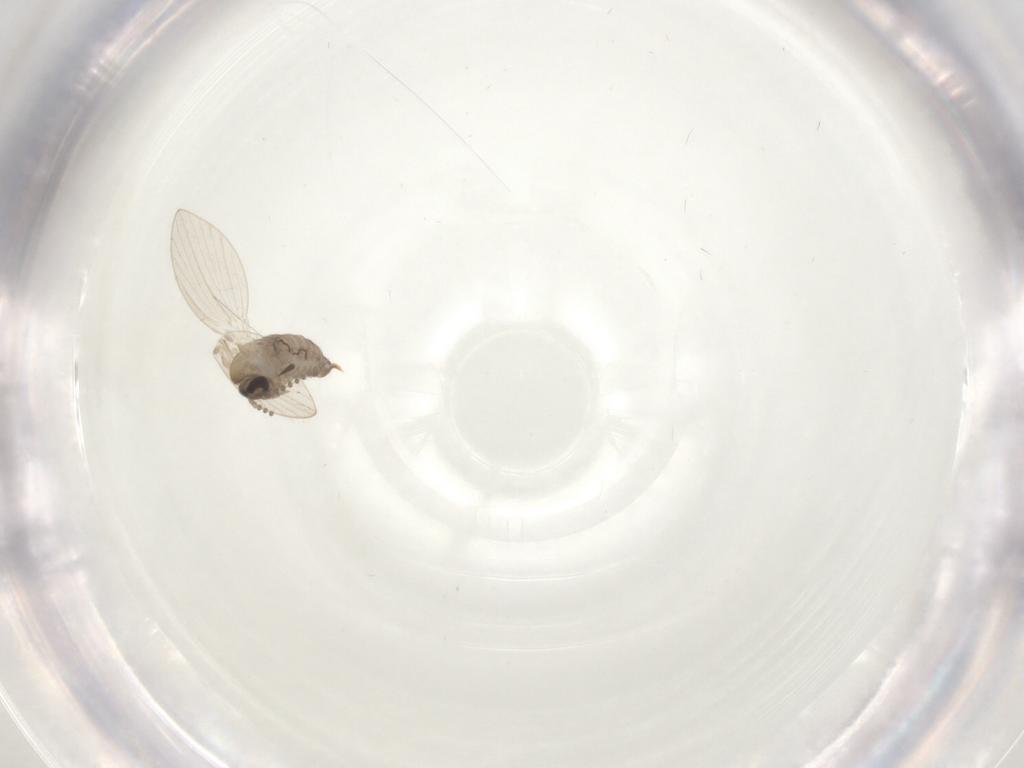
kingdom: Animalia
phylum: Arthropoda
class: Insecta
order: Diptera
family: Psychodidae
